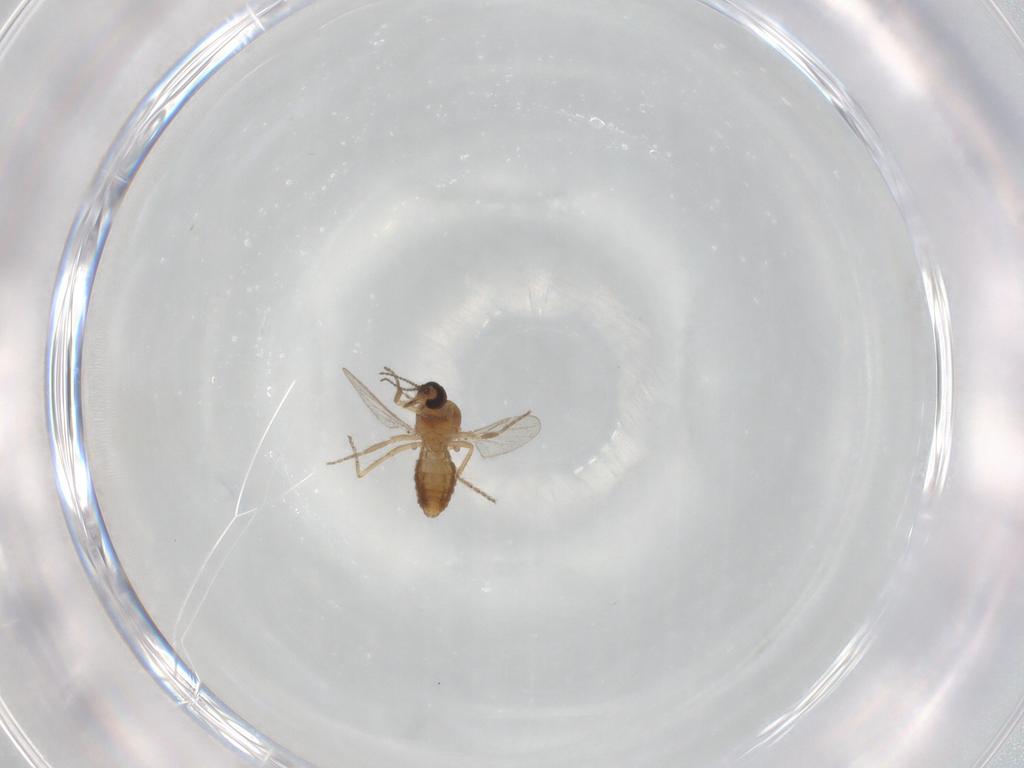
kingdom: Animalia
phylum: Arthropoda
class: Insecta
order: Diptera
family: Ceratopogonidae
